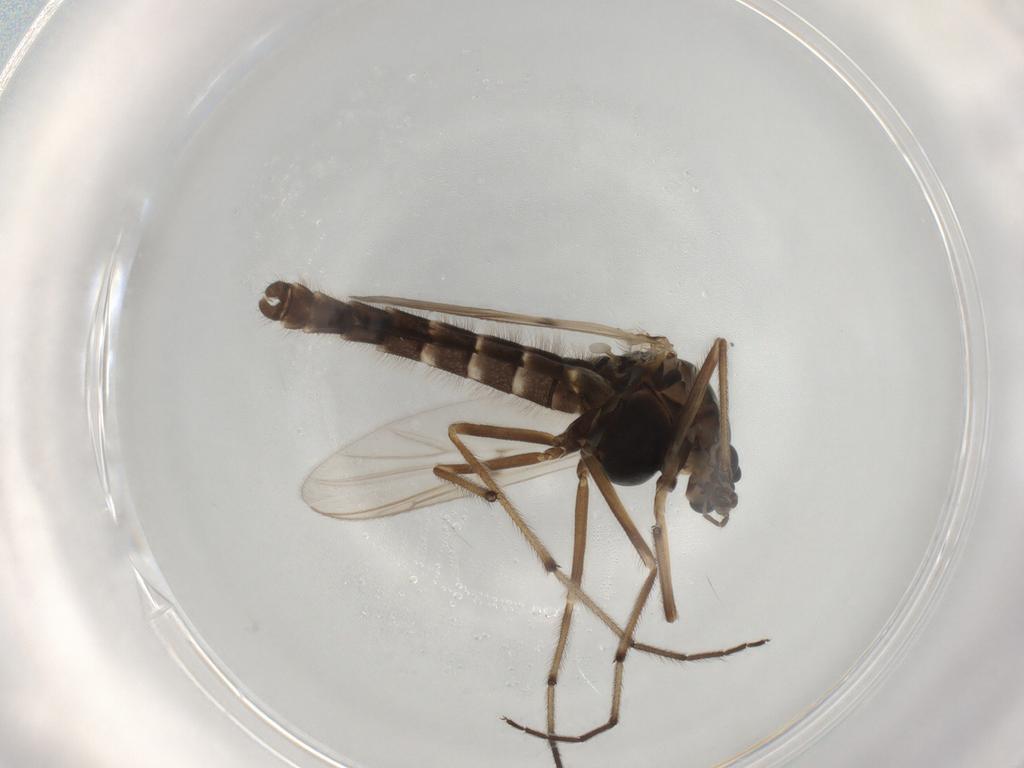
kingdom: Animalia
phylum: Arthropoda
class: Insecta
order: Diptera
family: Chironomidae
